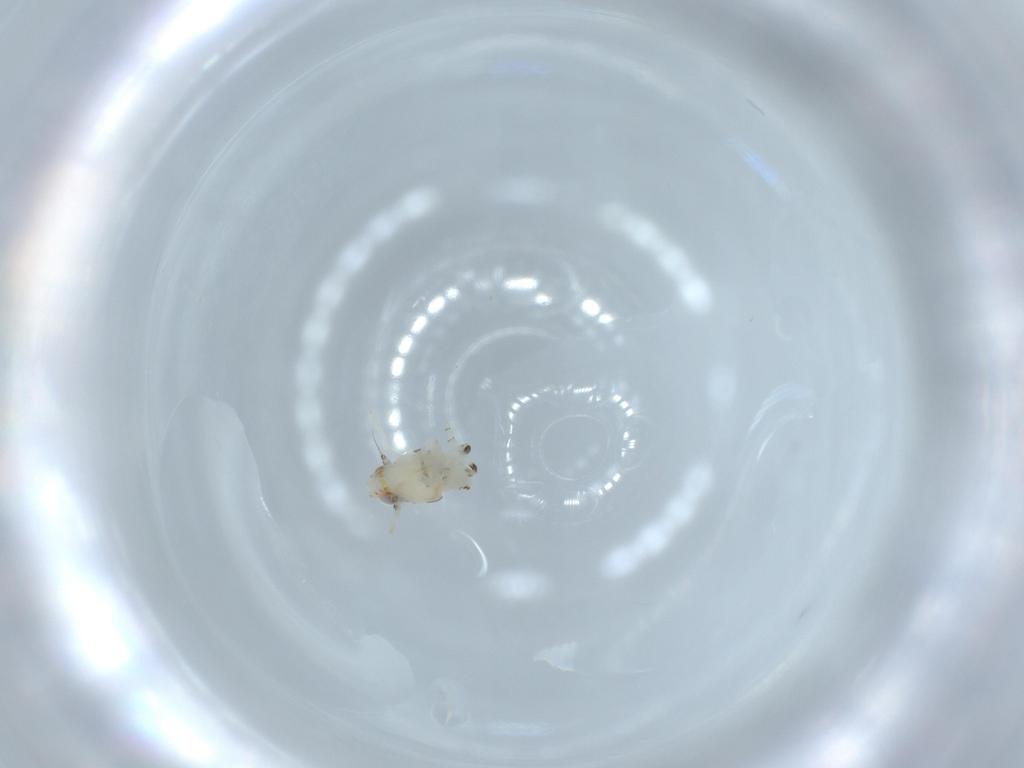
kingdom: Animalia
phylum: Arthropoda
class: Insecta
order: Hemiptera
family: Nogodinidae
